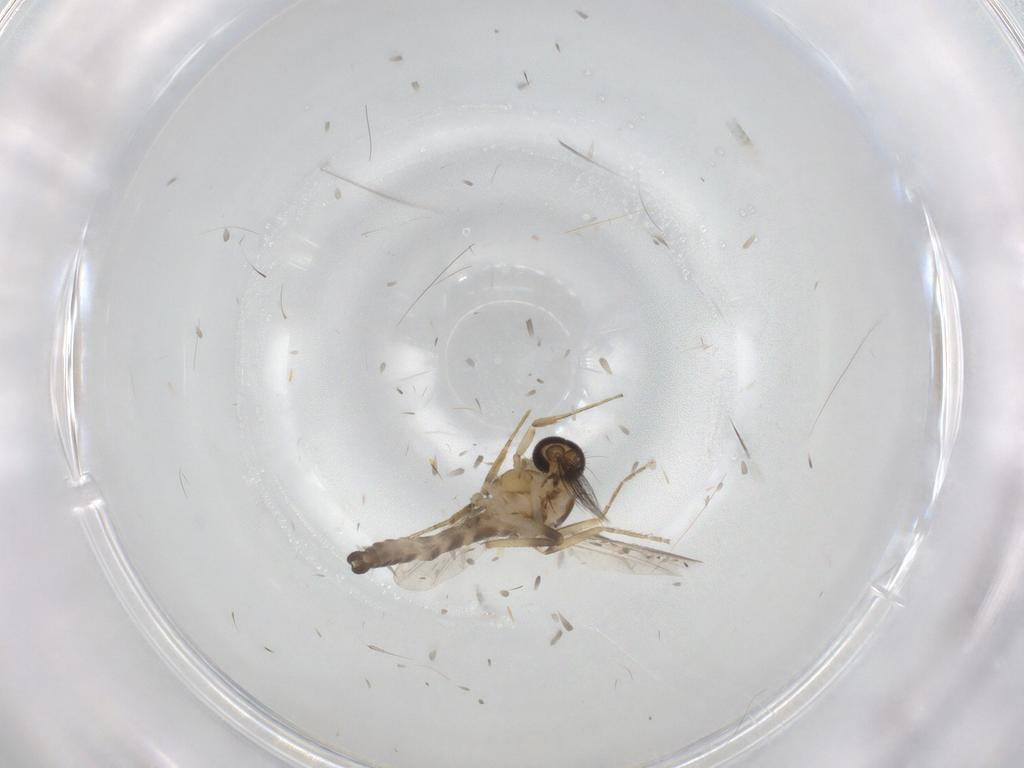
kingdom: Animalia
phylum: Arthropoda
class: Insecta
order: Diptera
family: Ceratopogonidae
